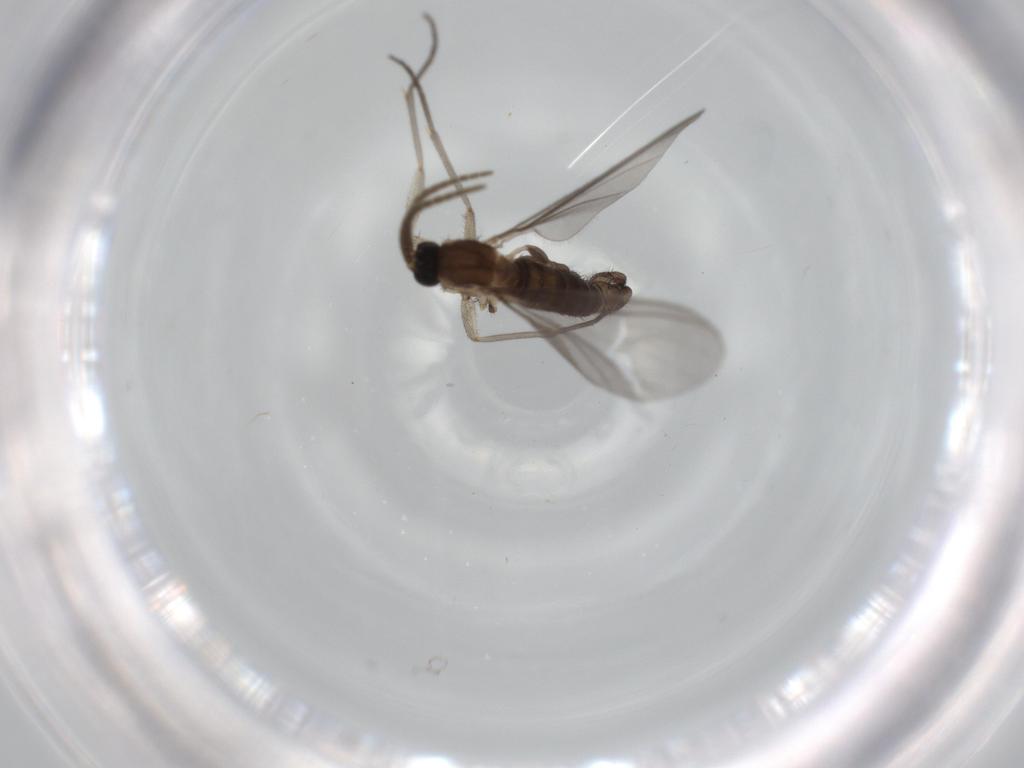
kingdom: Animalia
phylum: Arthropoda
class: Insecta
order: Diptera
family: Sciaridae
